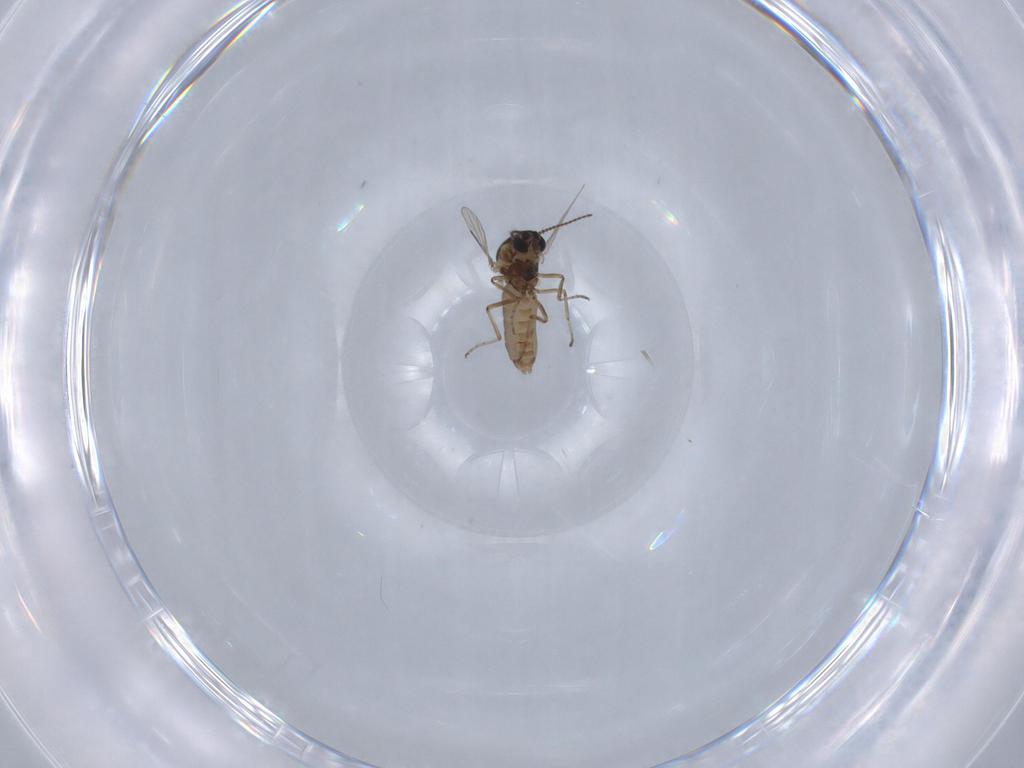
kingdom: Animalia
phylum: Arthropoda
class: Insecta
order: Diptera
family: Ceratopogonidae
